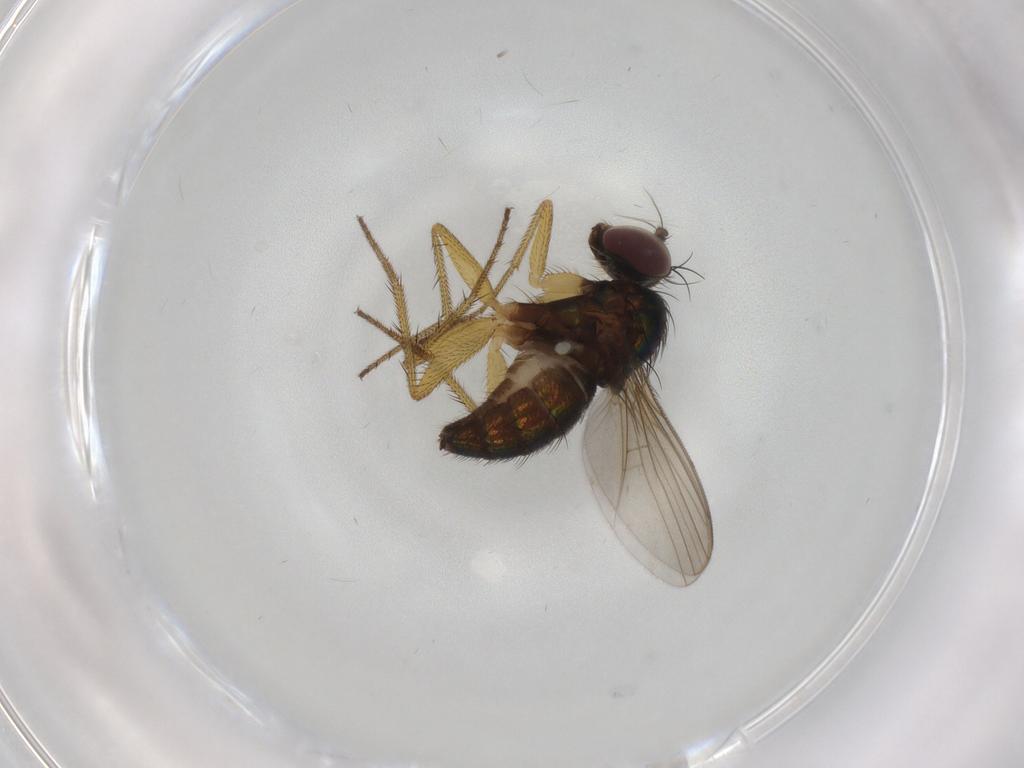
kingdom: Animalia
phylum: Arthropoda
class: Insecta
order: Diptera
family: Dolichopodidae
